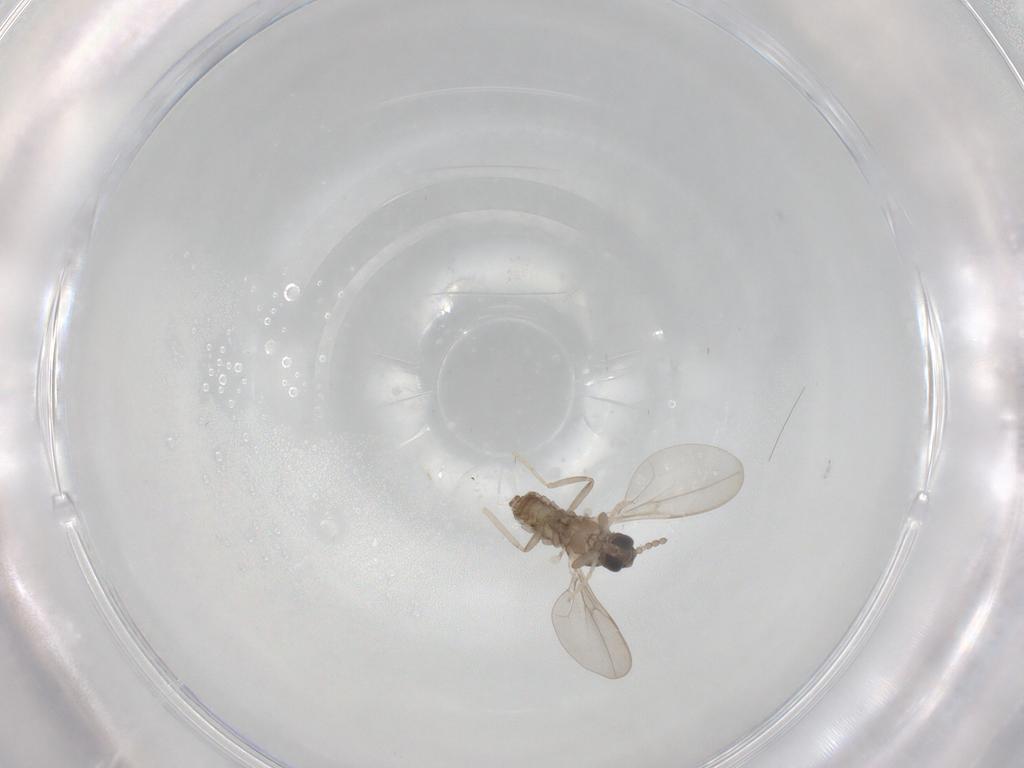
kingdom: Animalia
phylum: Arthropoda
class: Insecta
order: Diptera
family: Cecidomyiidae
